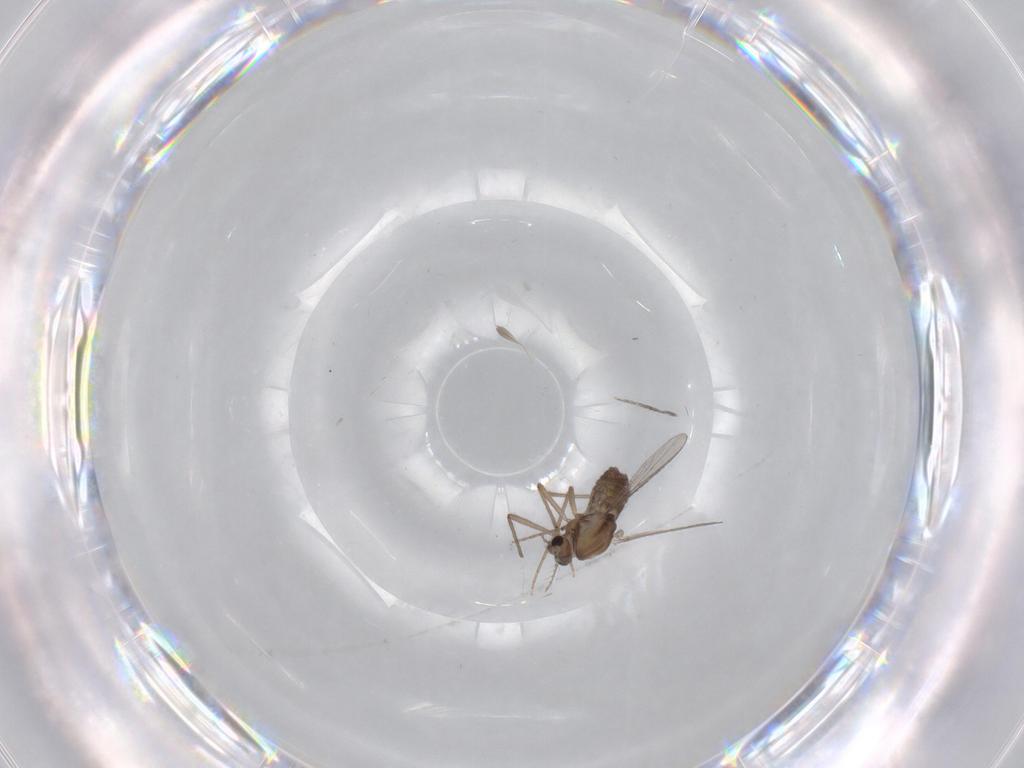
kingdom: Animalia
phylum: Arthropoda
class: Insecta
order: Diptera
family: Chironomidae
